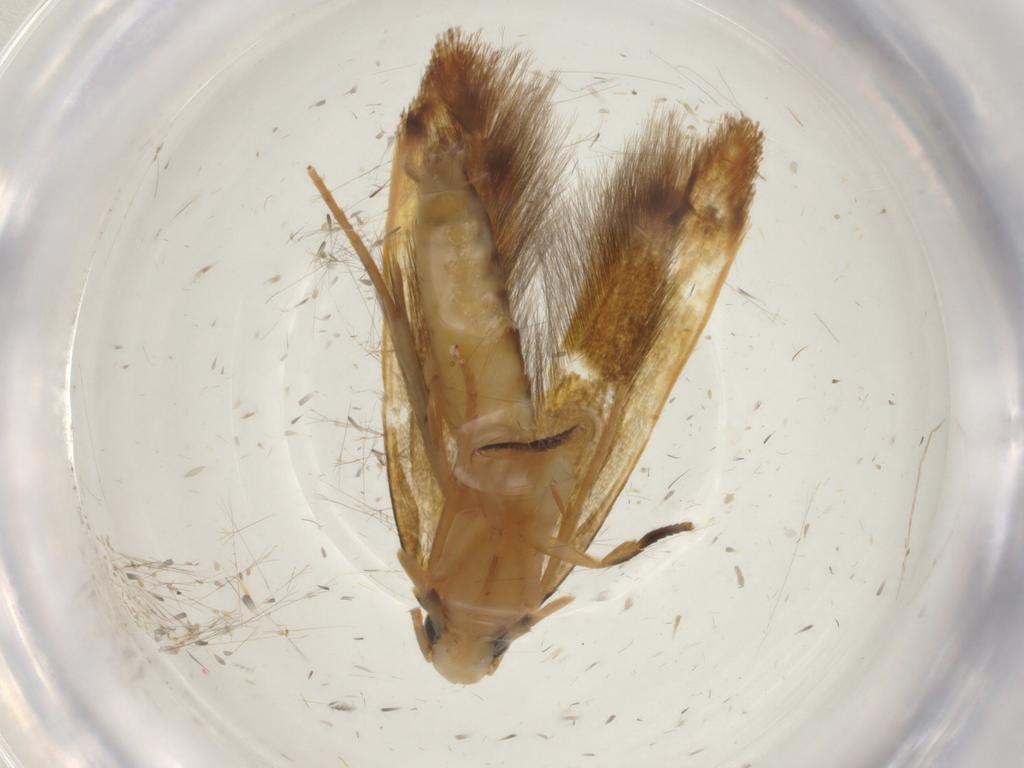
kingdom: Animalia
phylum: Arthropoda
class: Insecta
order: Lepidoptera
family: Tineidae
